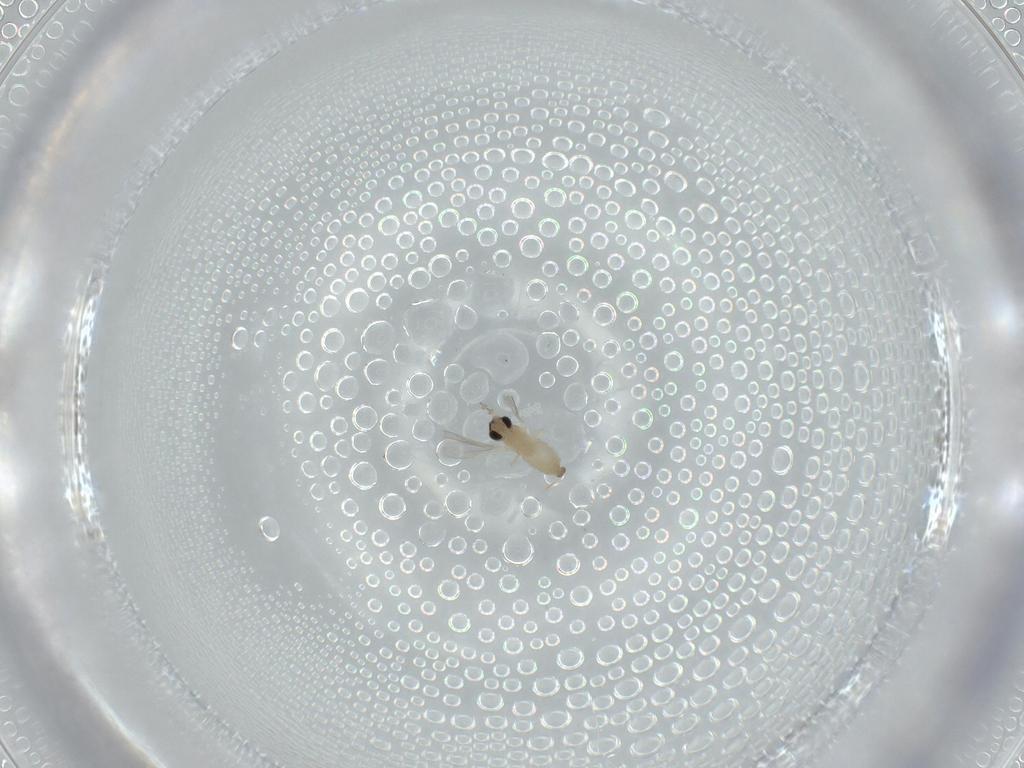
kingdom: Animalia
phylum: Arthropoda
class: Insecta
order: Diptera
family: Cecidomyiidae
